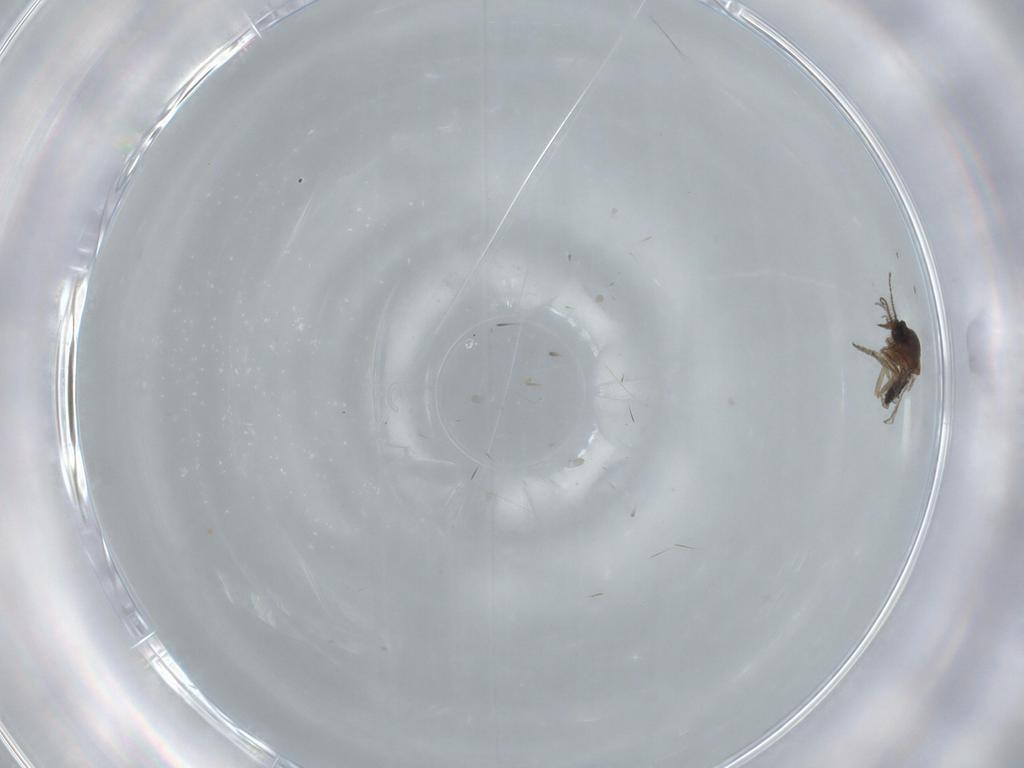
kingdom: Animalia
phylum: Arthropoda
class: Insecta
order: Diptera
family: Ceratopogonidae
